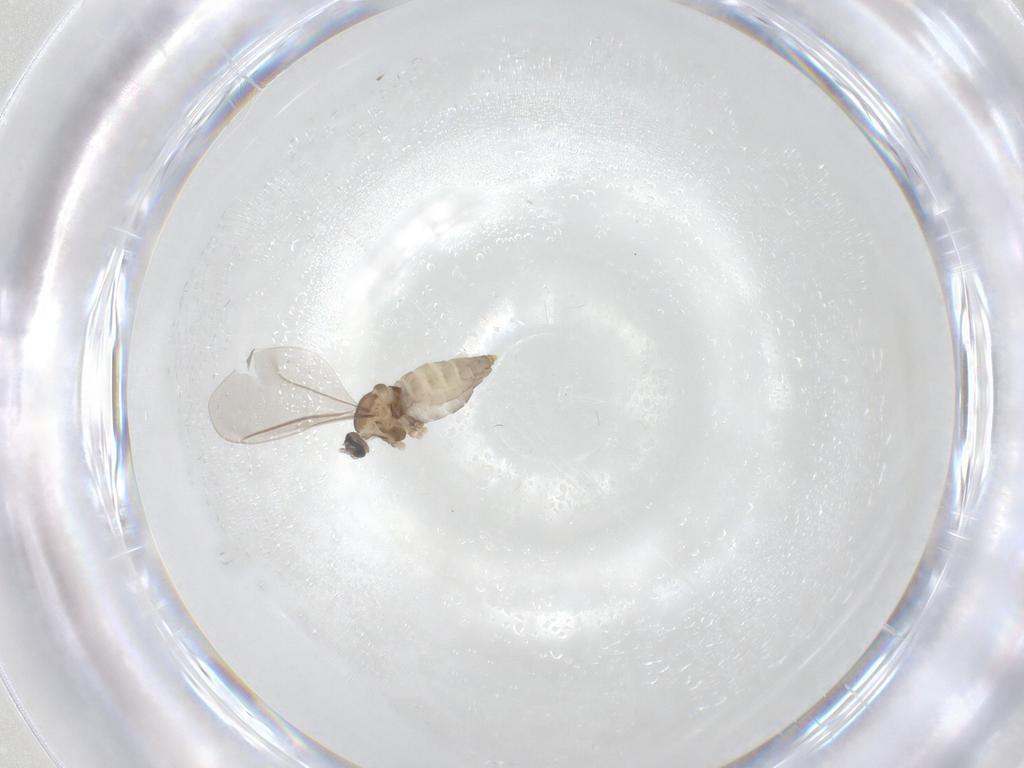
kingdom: Animalia
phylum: Arthropoda
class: Insecta
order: Diptera
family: Cecidomyiidae
